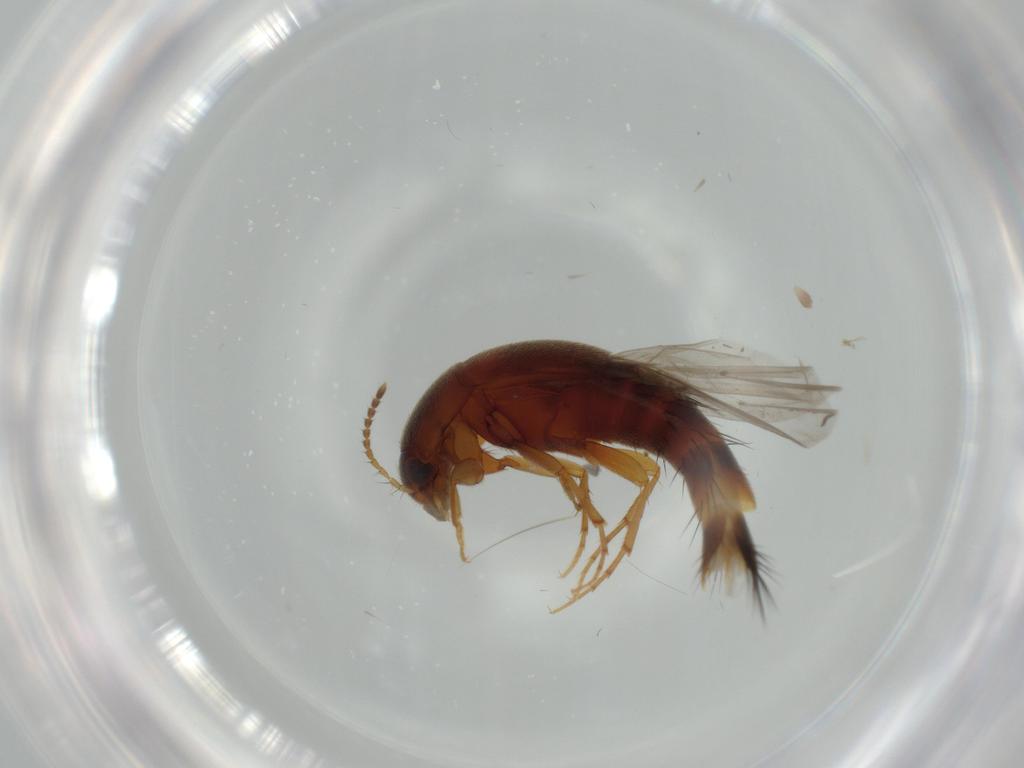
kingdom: Animalia
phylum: Arthropoda
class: Insecta
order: Coleoptera
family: Staphylinidae
